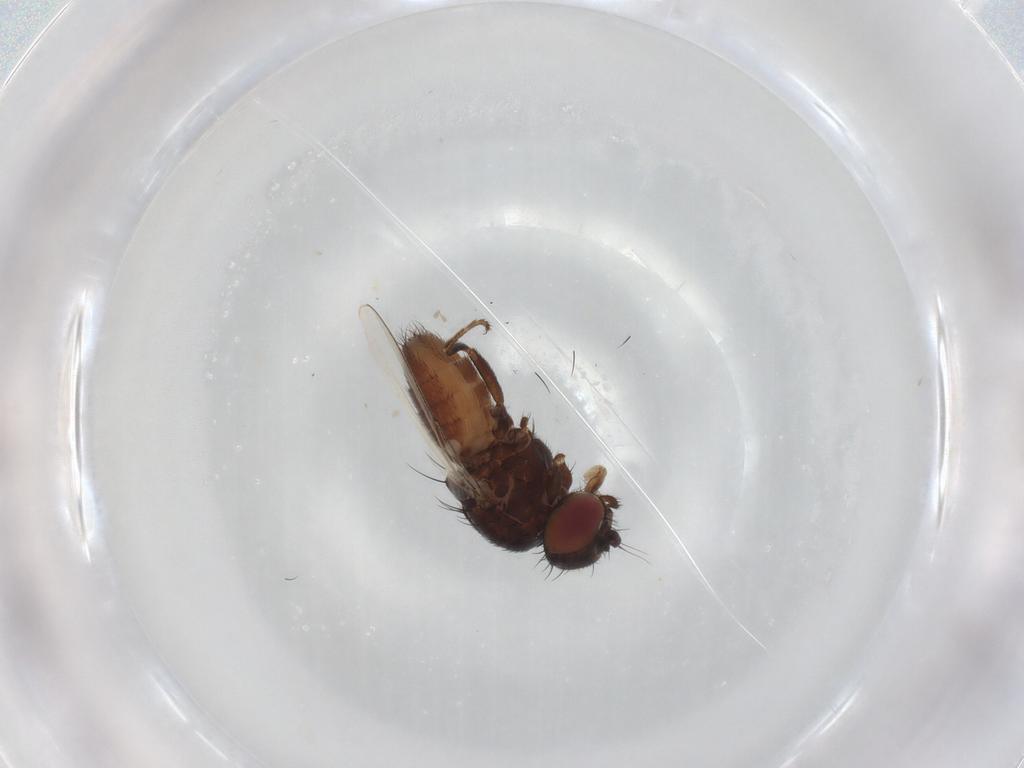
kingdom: Animalia
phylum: Arthropoda
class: Insecta
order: Diptera
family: Milichiidae
